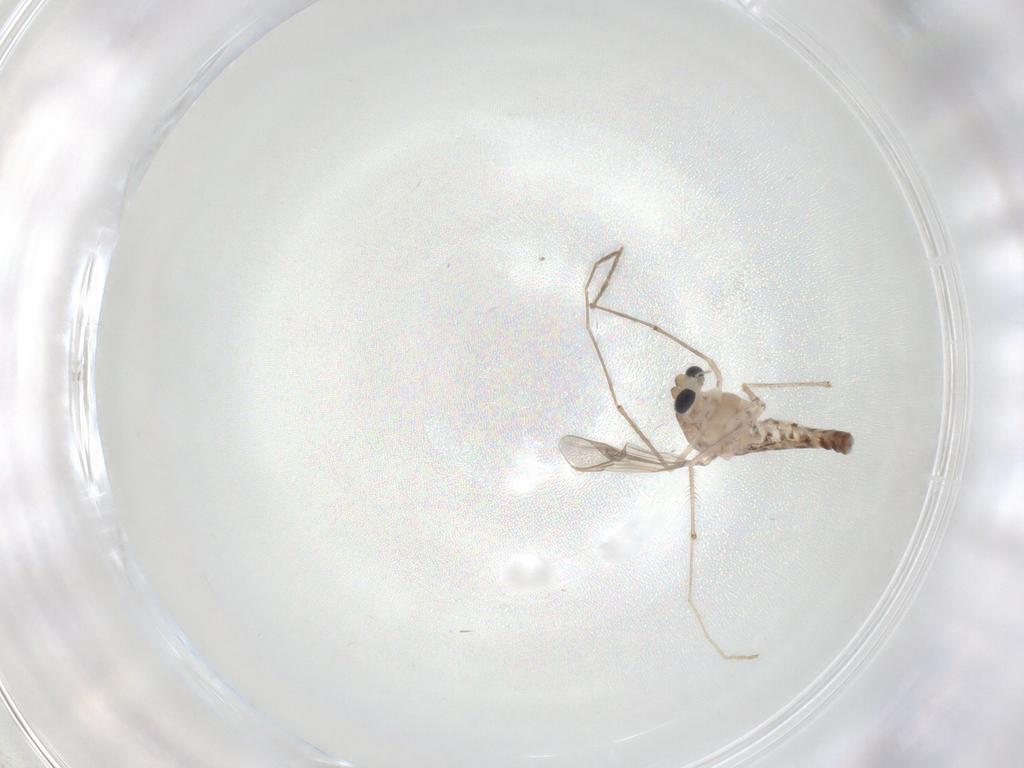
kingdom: Animalia
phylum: Arthropoda
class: Insecta
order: Diptera
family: Chironomidae
